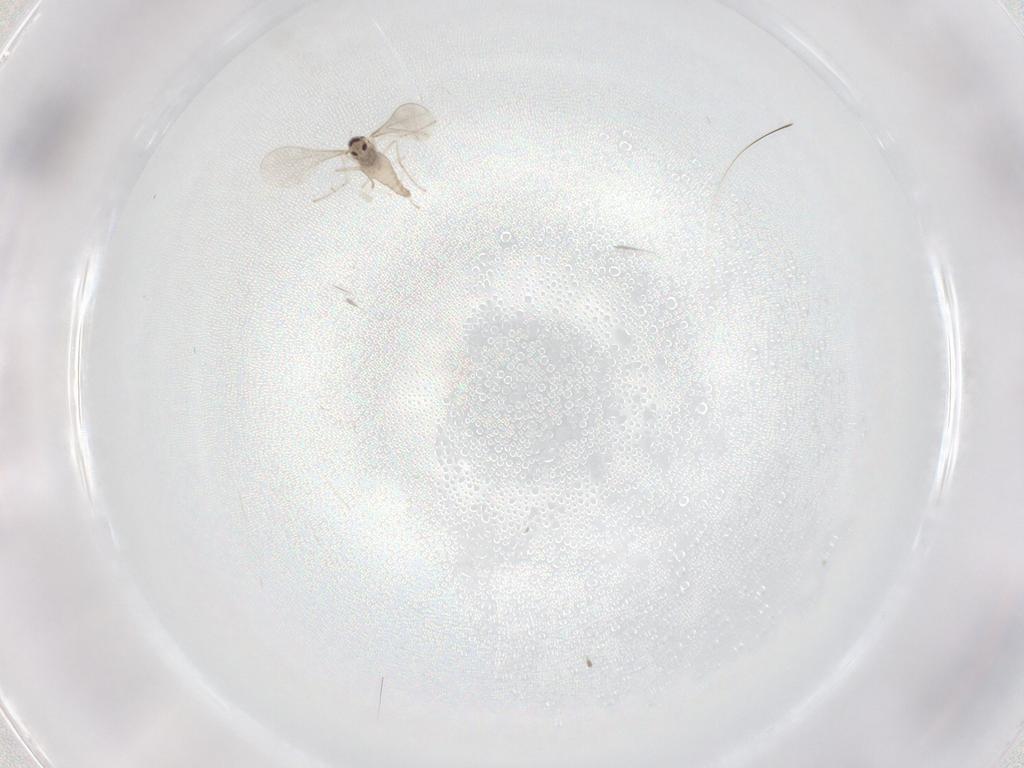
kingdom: Animalia
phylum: Arthropoda
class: Insecta
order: Diptera
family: Cecidomyiidae
